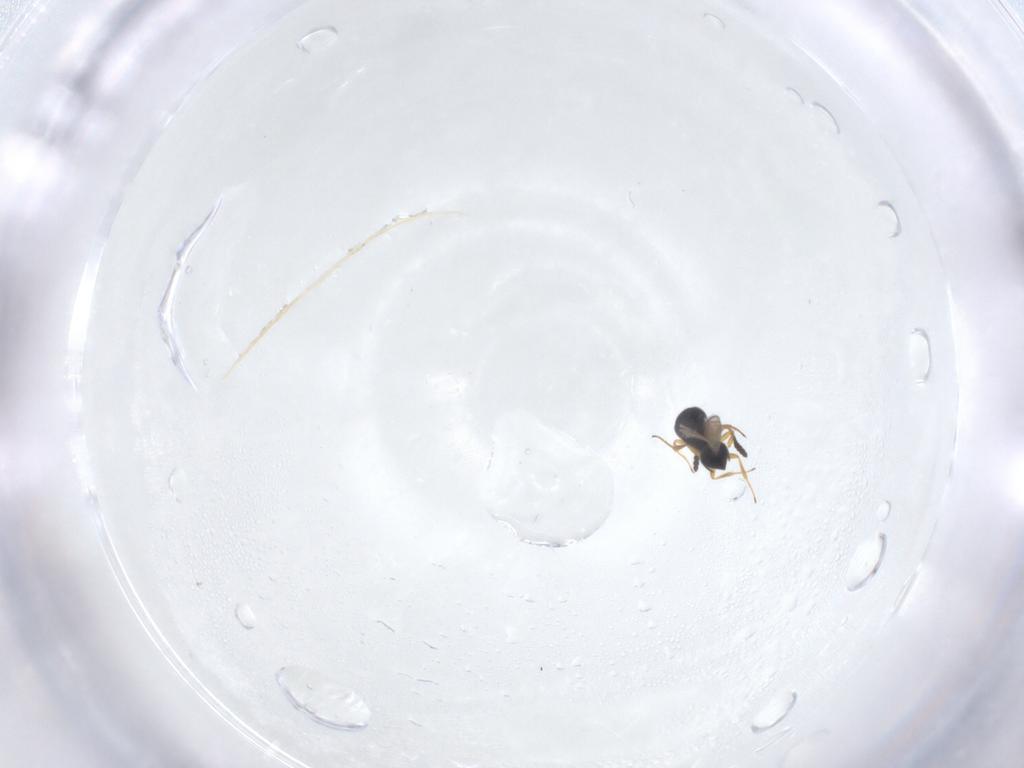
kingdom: Animalia
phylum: Arthropoda
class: Insecta
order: Hymenoptera
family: Scelionidae
